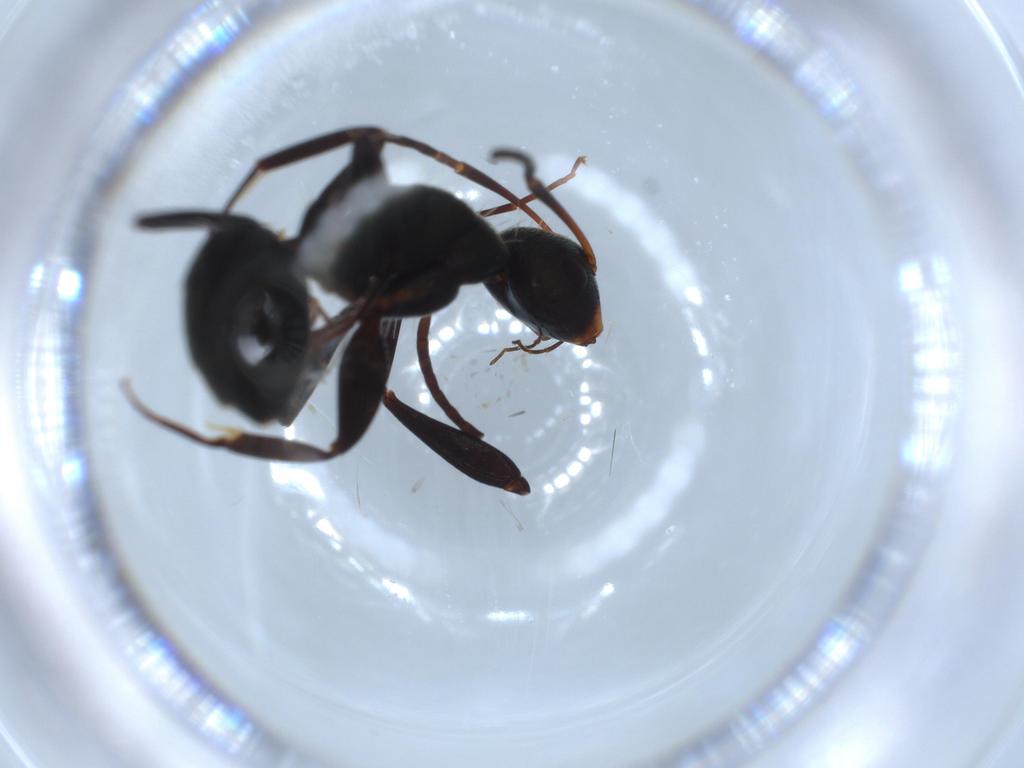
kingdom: Animalia
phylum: Arthropoda
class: Insecta
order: Hymenoptera
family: Formicidae
